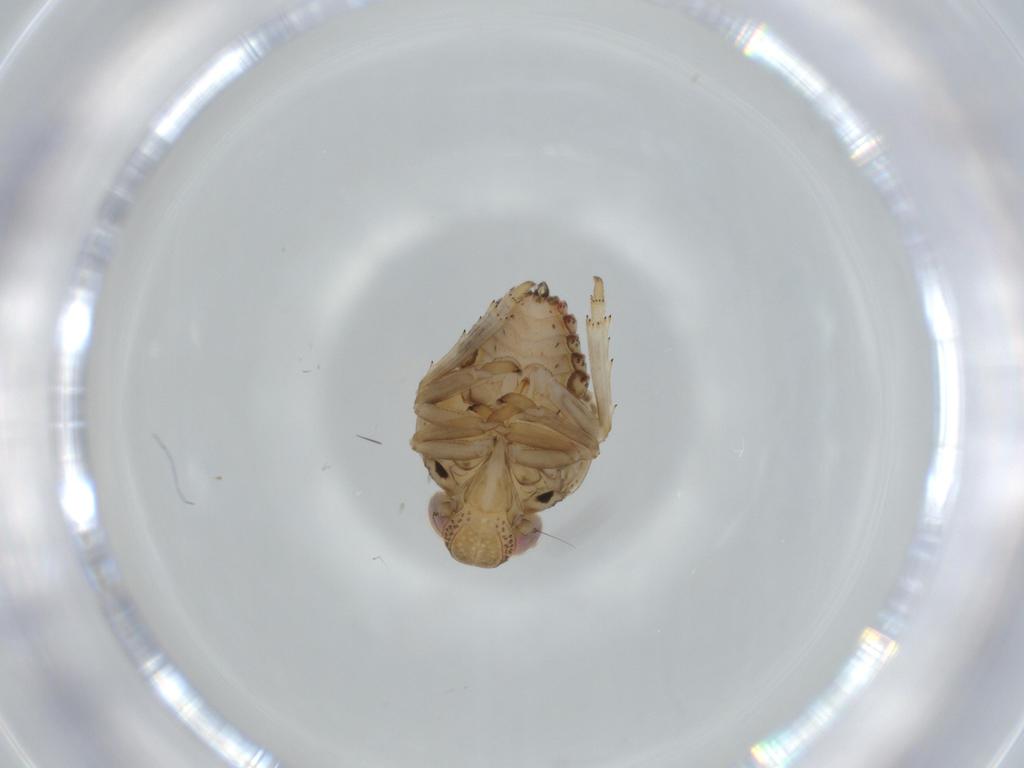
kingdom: Animalia
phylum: Arthropoda
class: Insecta
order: Hemiptera
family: Issidae
